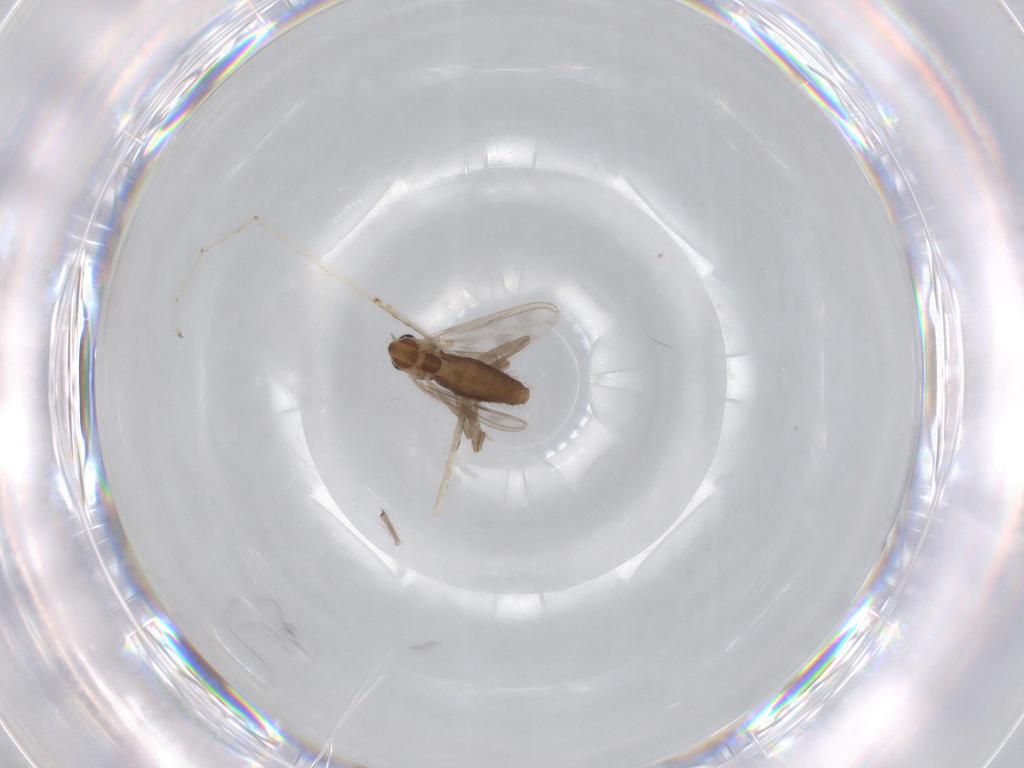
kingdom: Animalia
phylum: Arthropoda
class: Insecta
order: Diptera
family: Chironomidae
